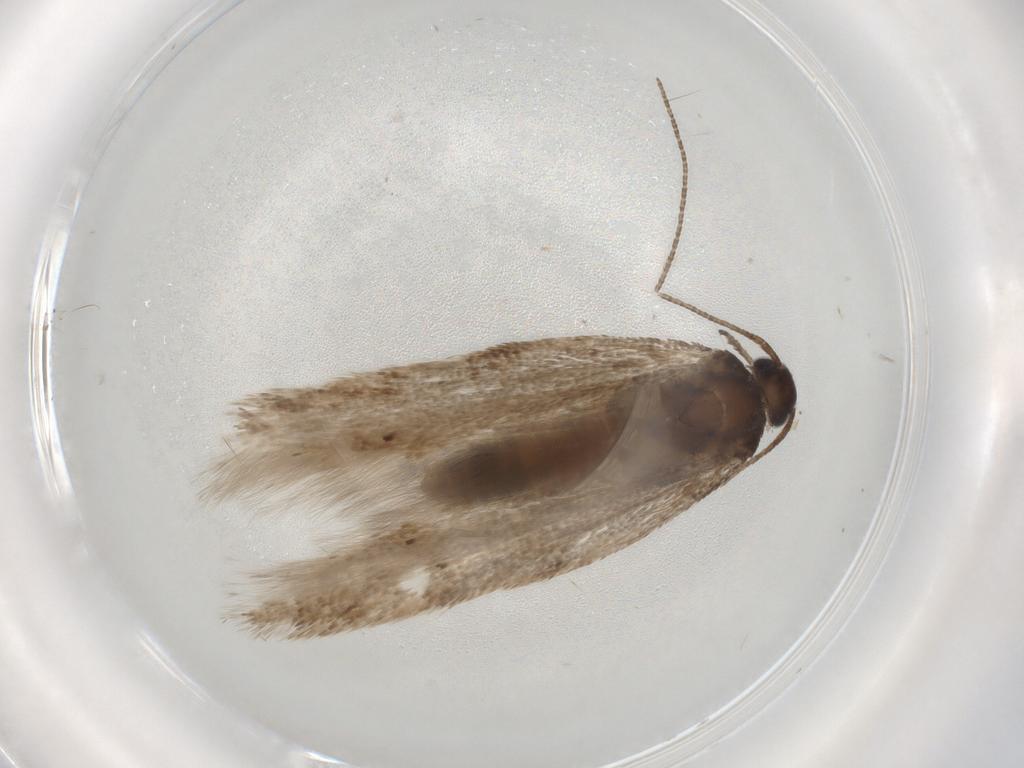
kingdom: Animalia
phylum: Arthropoda
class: Insecta
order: Lepidoptera
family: Gelechiidae
